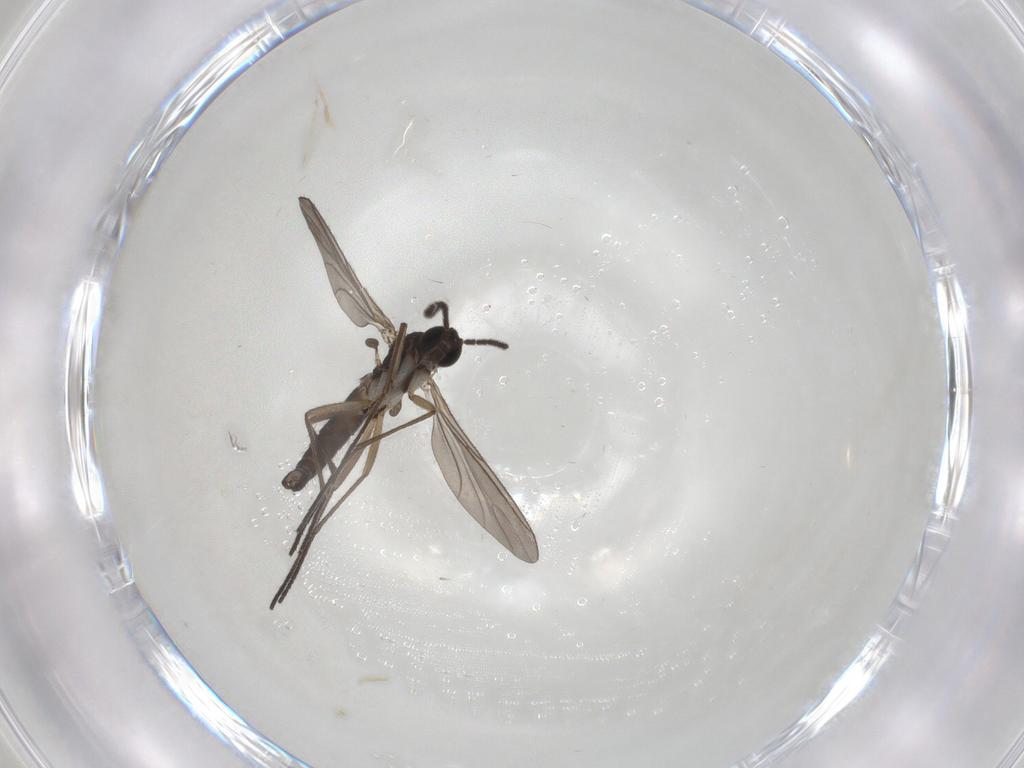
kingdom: Animalia
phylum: Arthropoda
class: Insecta
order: Diptera
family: Sciaridae
